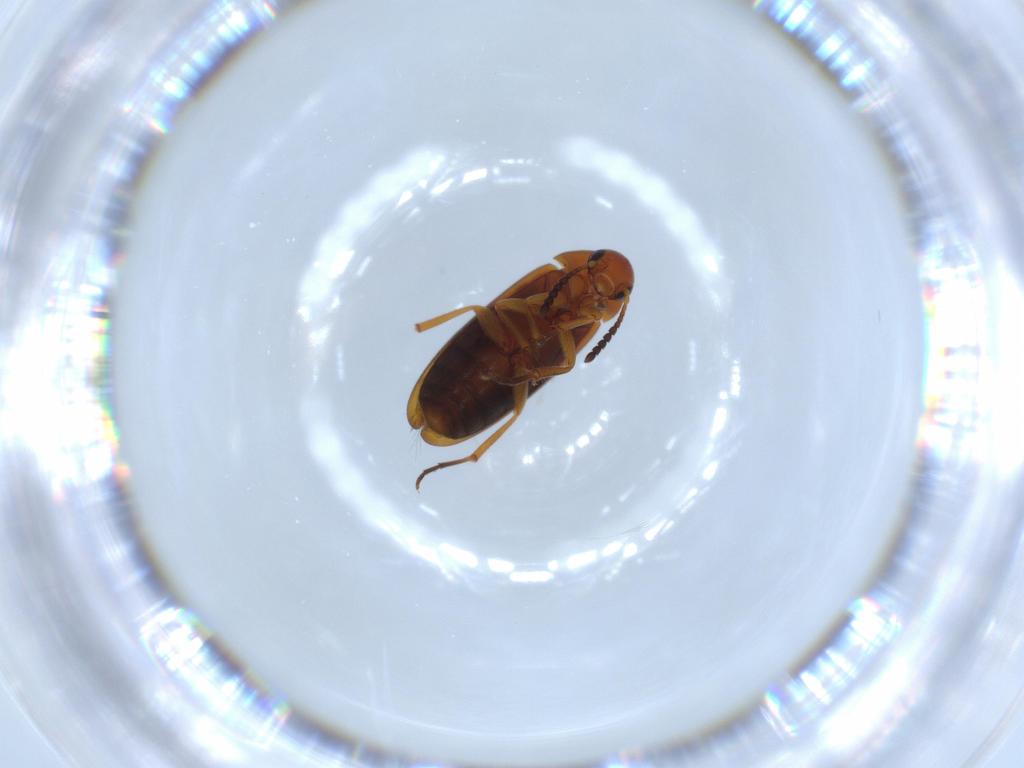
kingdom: Animalia
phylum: Arthropoda
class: Insecta
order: Coleoptera
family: Scraptiidae
